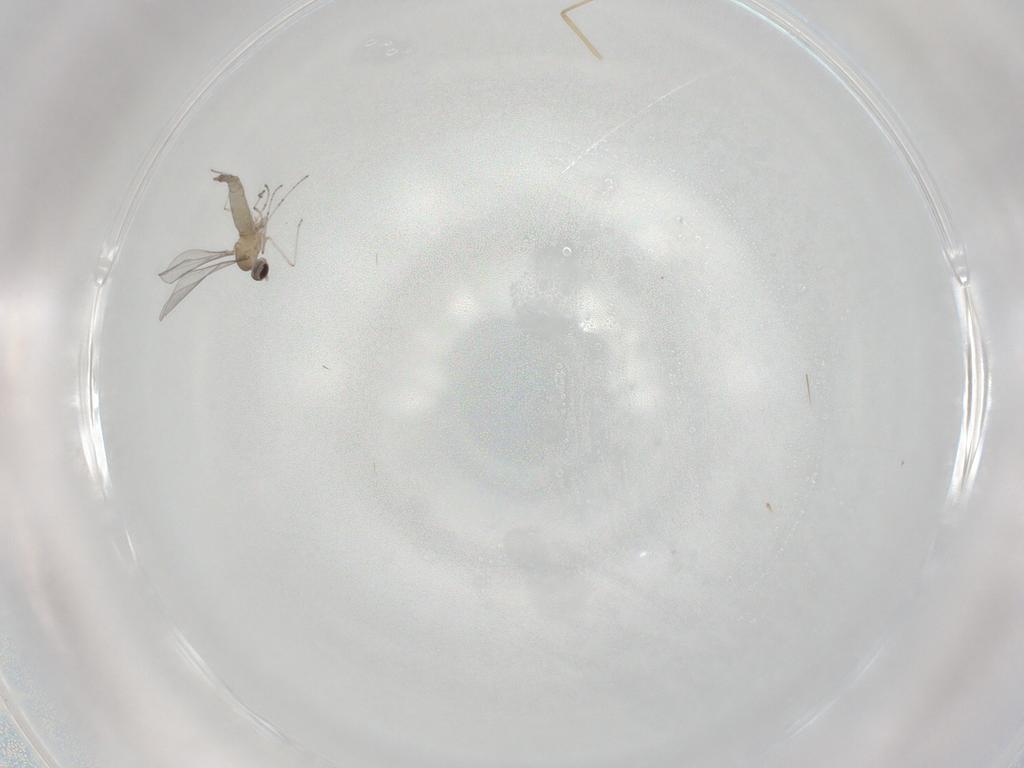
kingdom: Animalia
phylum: Arthropoda
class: Insecta
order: Diptera
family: Cecidomyiidae
